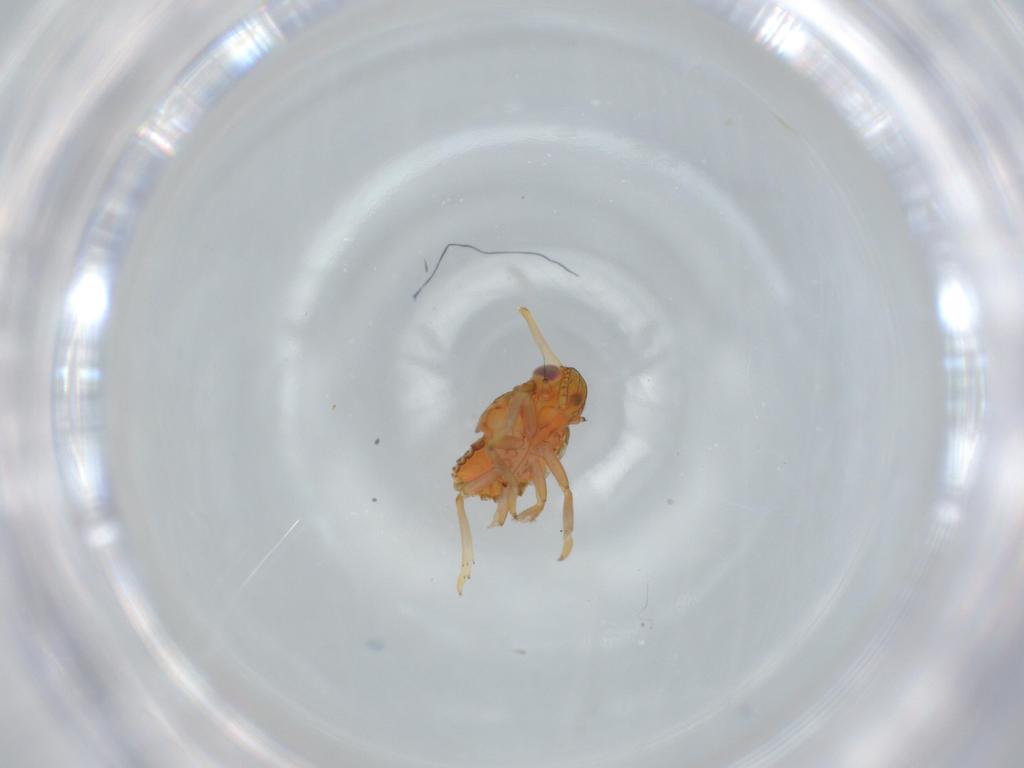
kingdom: Animalia
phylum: Arthropoda
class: Insecta
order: Hemiptera
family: Issidae
